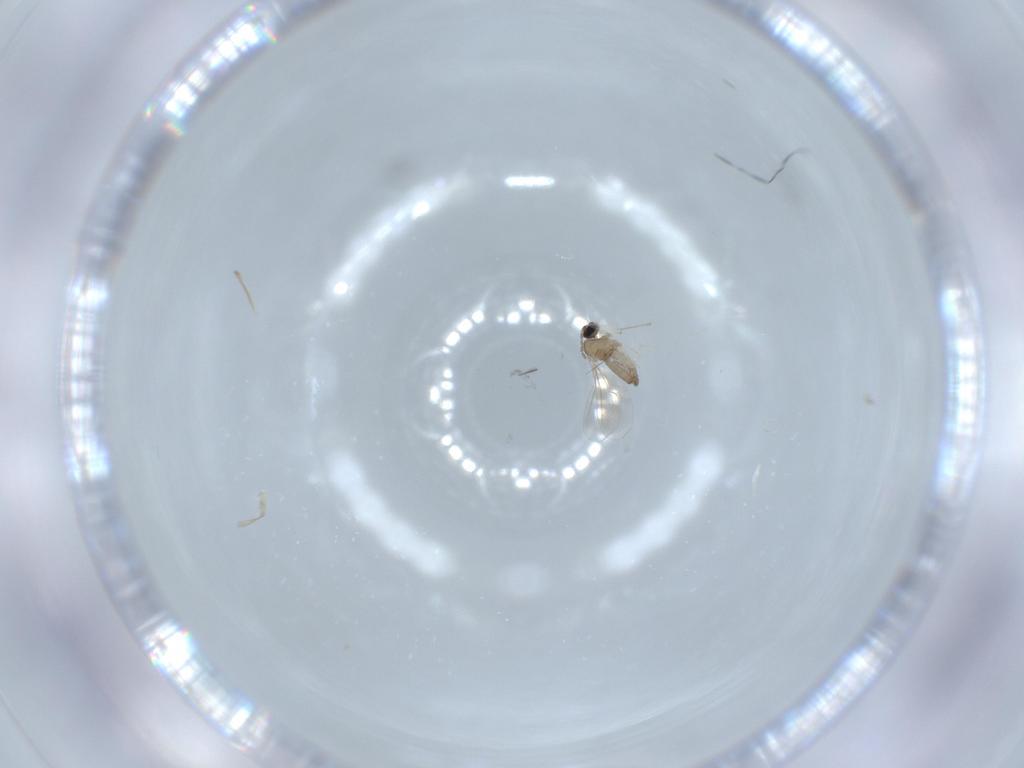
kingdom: Animalia
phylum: Arthropoda
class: Insecta
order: Diptera
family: Cecidomyiidae
